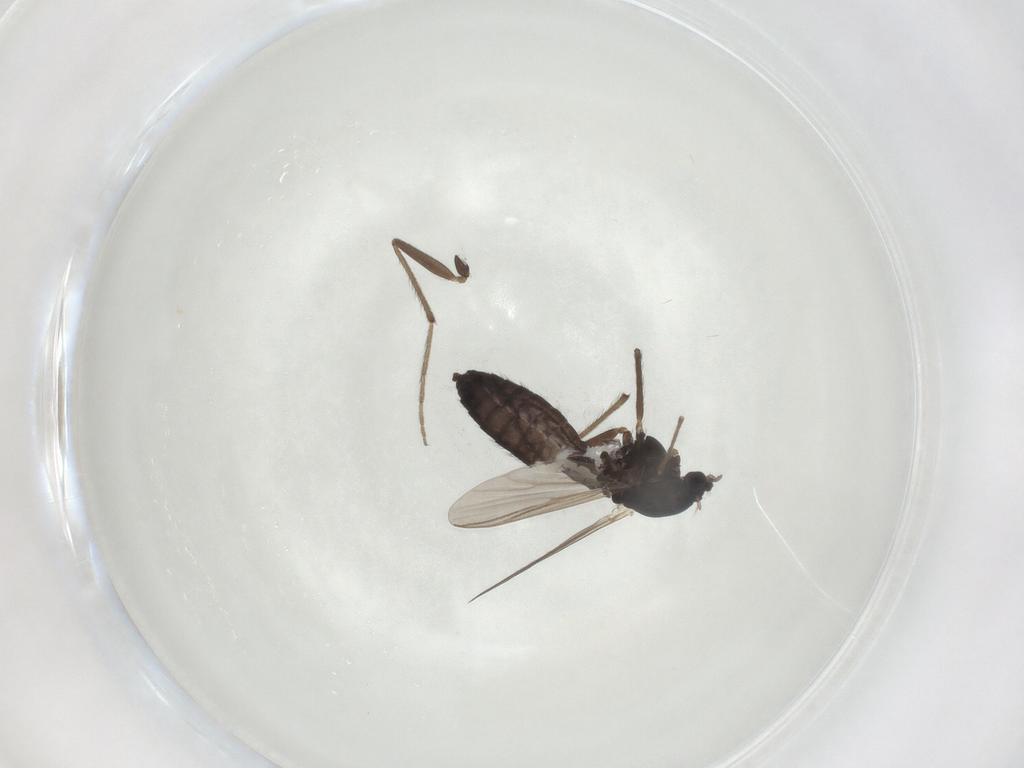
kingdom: Animalia
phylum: Arthropoda
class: Insecta
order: Diptera
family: Chironomidae
